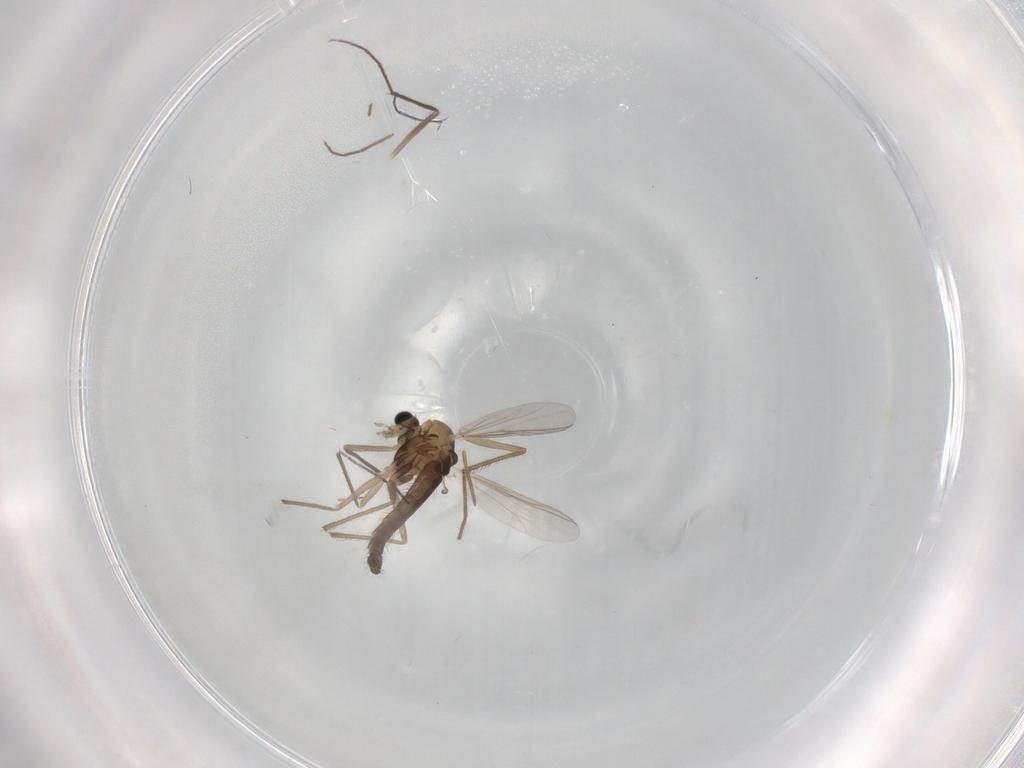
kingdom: Animalia
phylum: Arthropoda
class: Insecta
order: Diptera
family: Chironomidae
